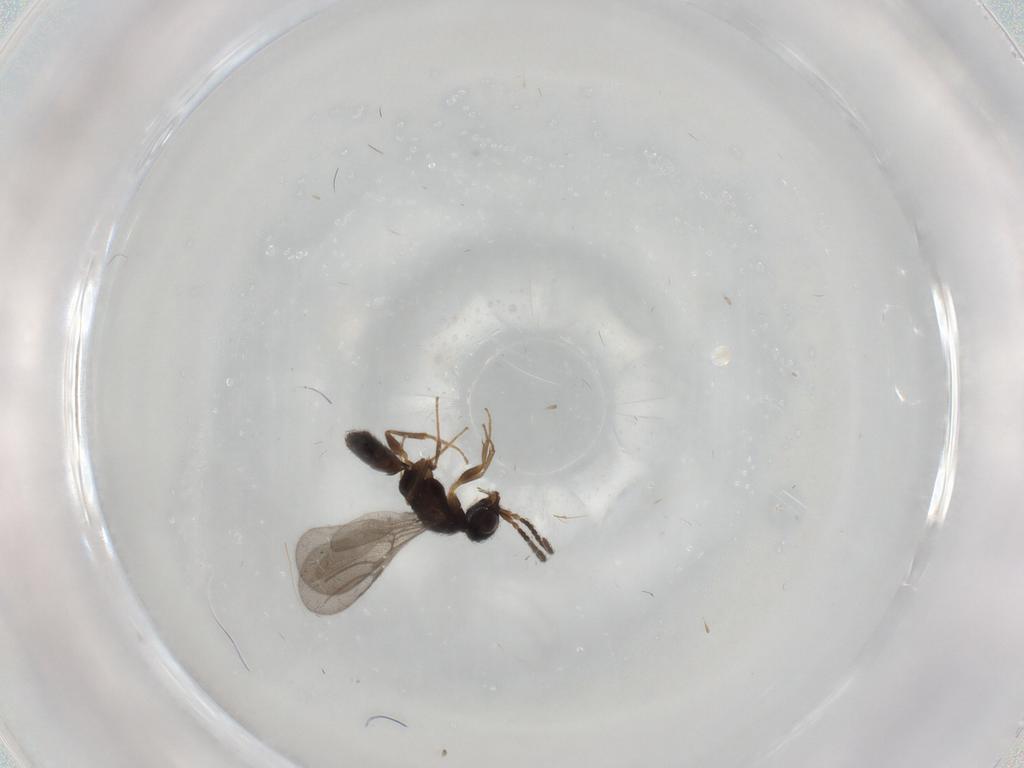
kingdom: Animalia
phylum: Arthropoda
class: Insecta
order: Hymenoptera
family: Bethylidae
